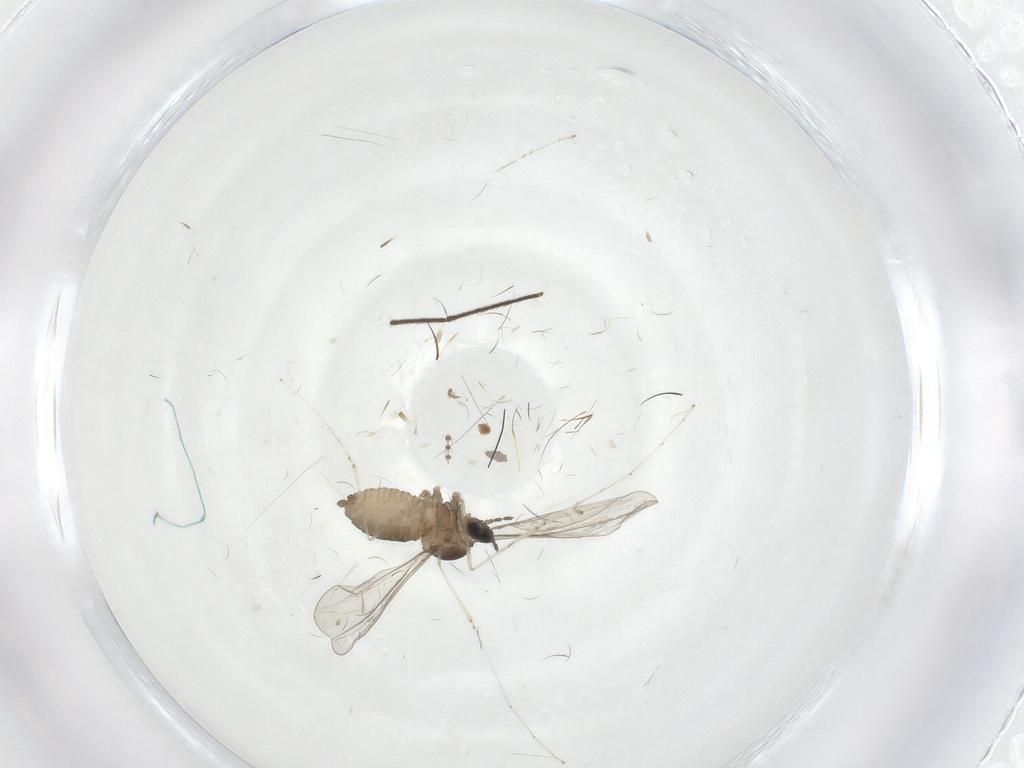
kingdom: Animalia
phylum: Arthropoda
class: Insecta
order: Diptera
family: Cecidomyiidae
